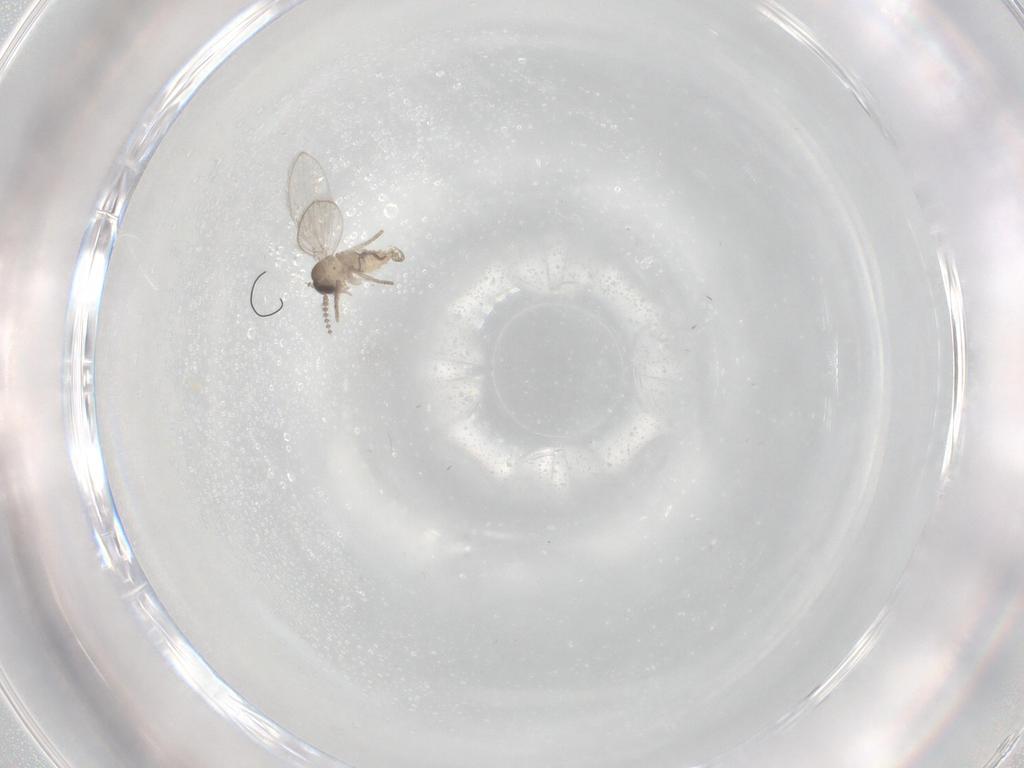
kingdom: Animalia
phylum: Arthropoda
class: Insecta
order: Diptera
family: Psychodidae
